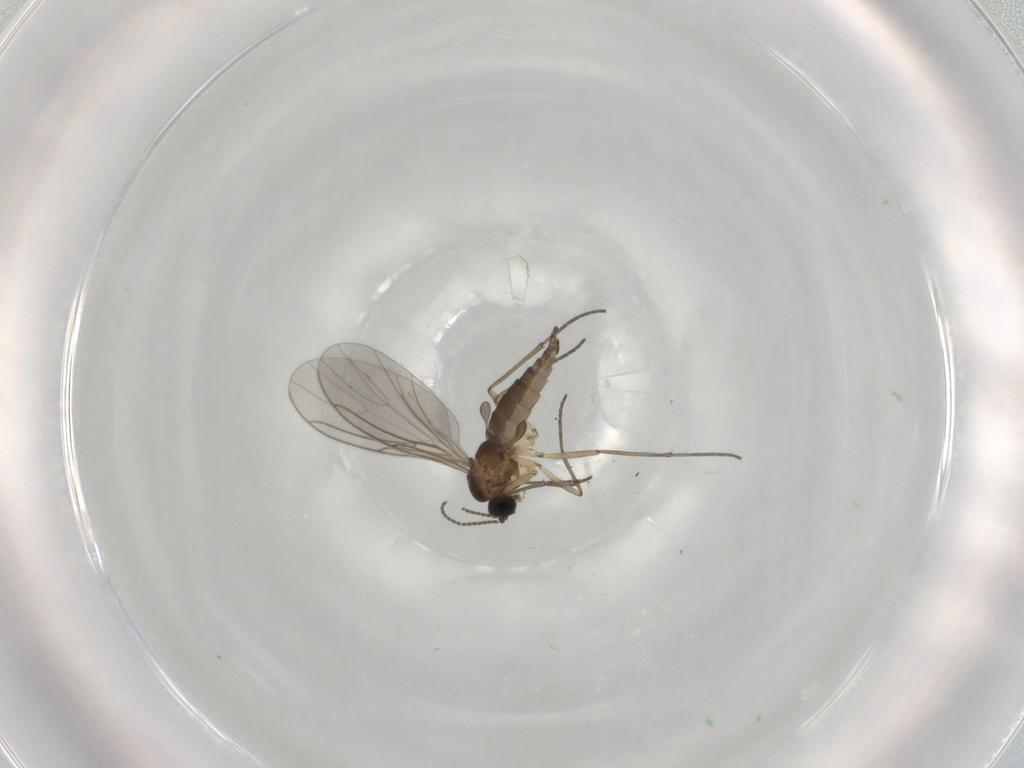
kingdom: Animalia
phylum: Arthropoda
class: Insecta
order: Diptera
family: Sciaridae
